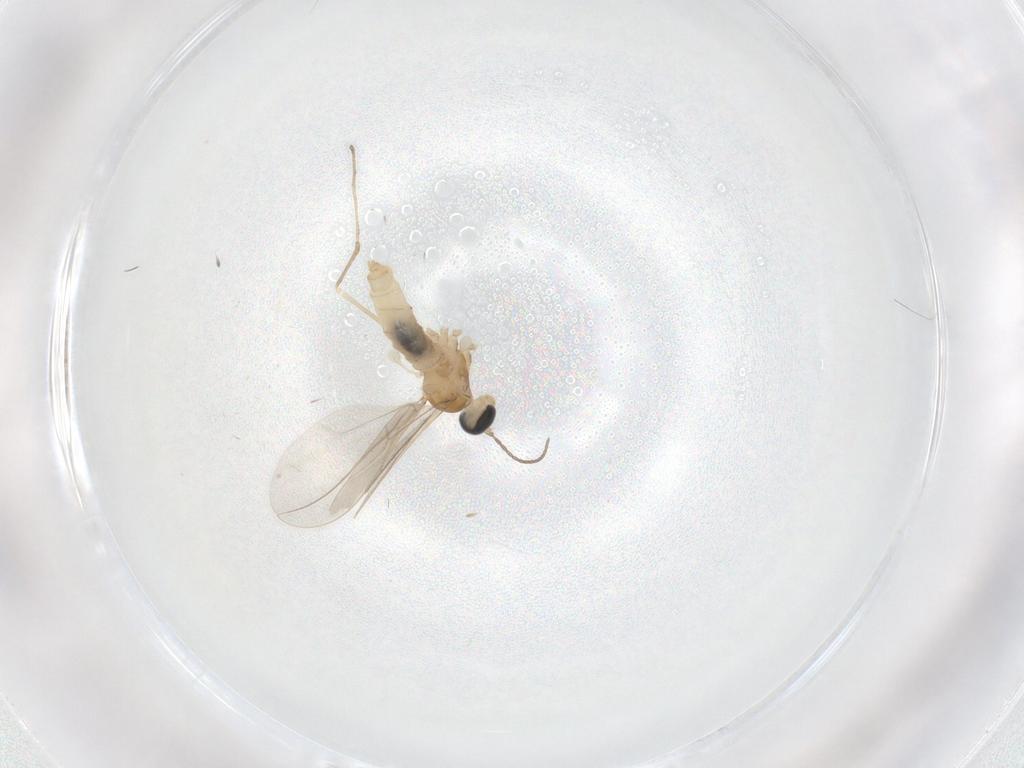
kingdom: Animalia
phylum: Arthropoda
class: Insecta
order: Diptera
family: Phoridae
